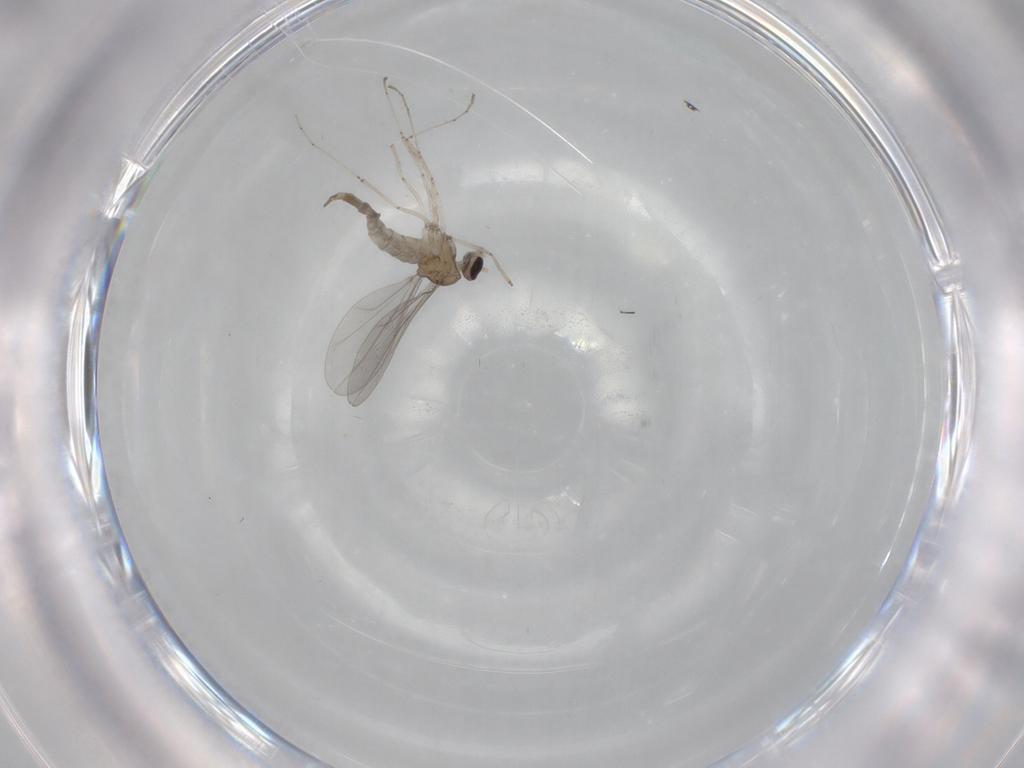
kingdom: Animalia
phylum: Arthropoda
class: Insecta
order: Diptera
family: Cecidomyiidae
